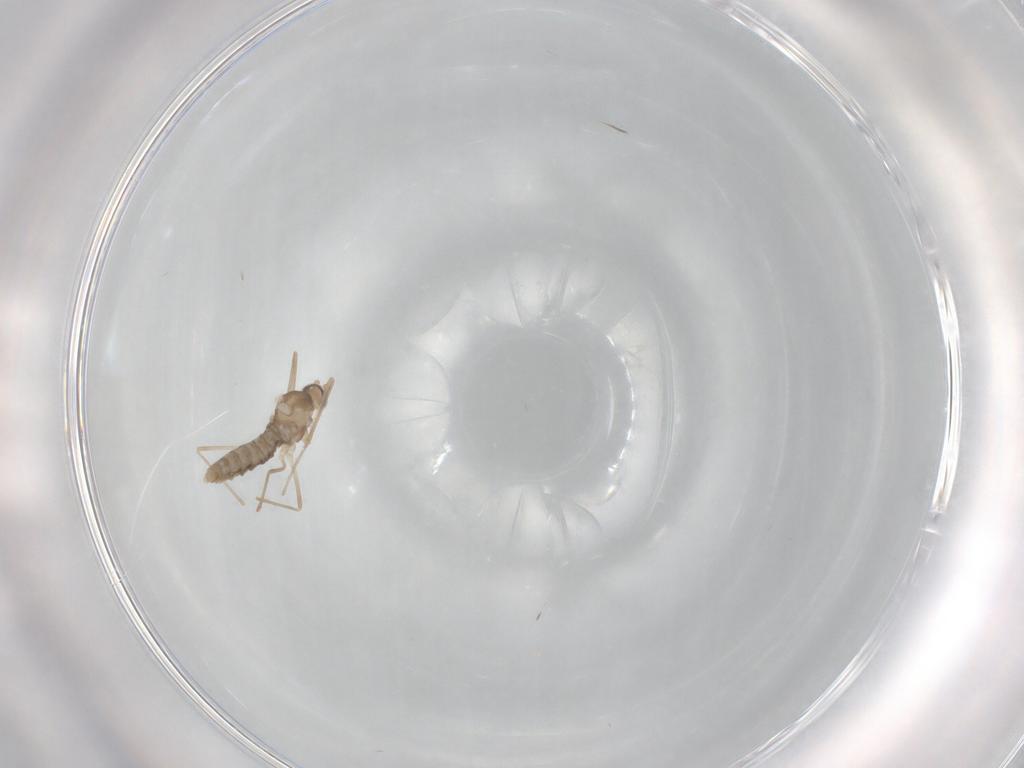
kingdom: Animalia
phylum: Arthropoda
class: Insecta
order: Diptera
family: Cecidomyiidae
